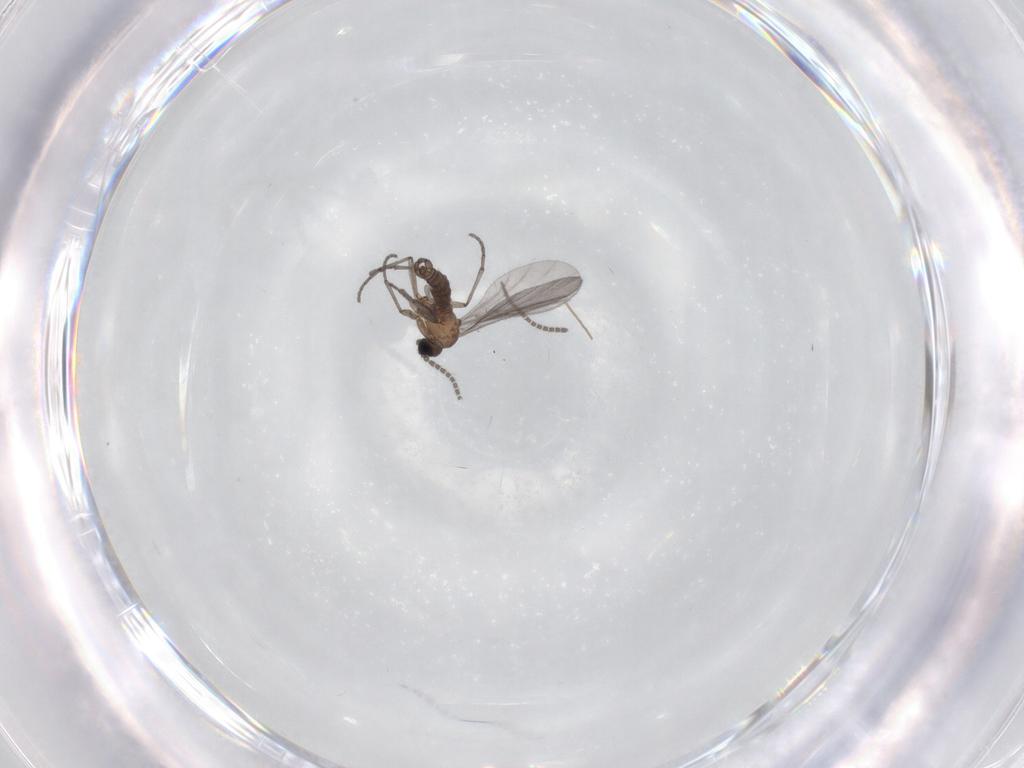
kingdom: Animalia
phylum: Arthropoda
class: Insecta
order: Diptera
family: Sciaridae
